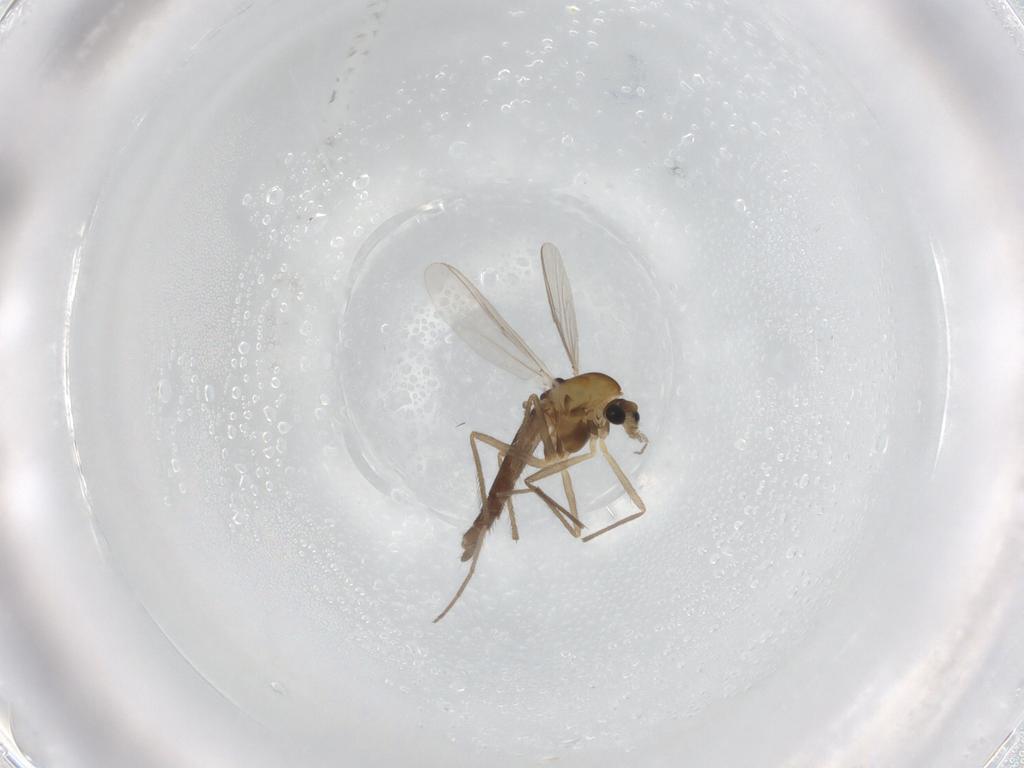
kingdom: Animalia
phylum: Arthropoda
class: Insecta
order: Diptera
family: Chironomidae
